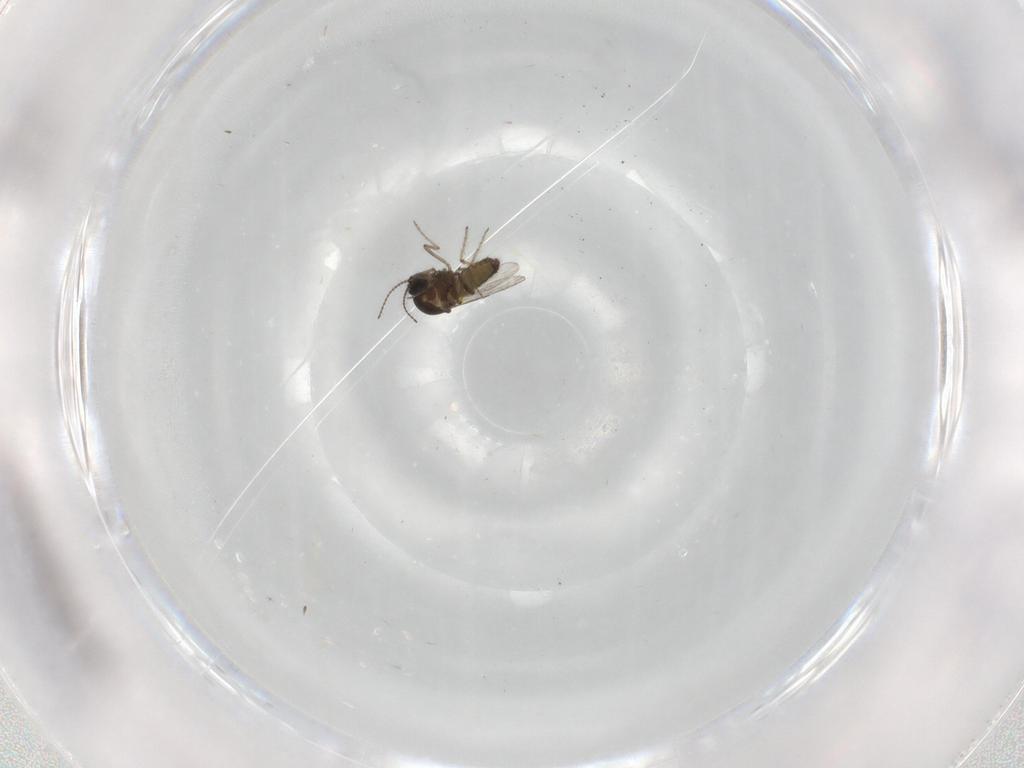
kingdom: Animalia
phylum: Arthropoda
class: Insecta
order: Diptera
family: Ceratopogonidae
